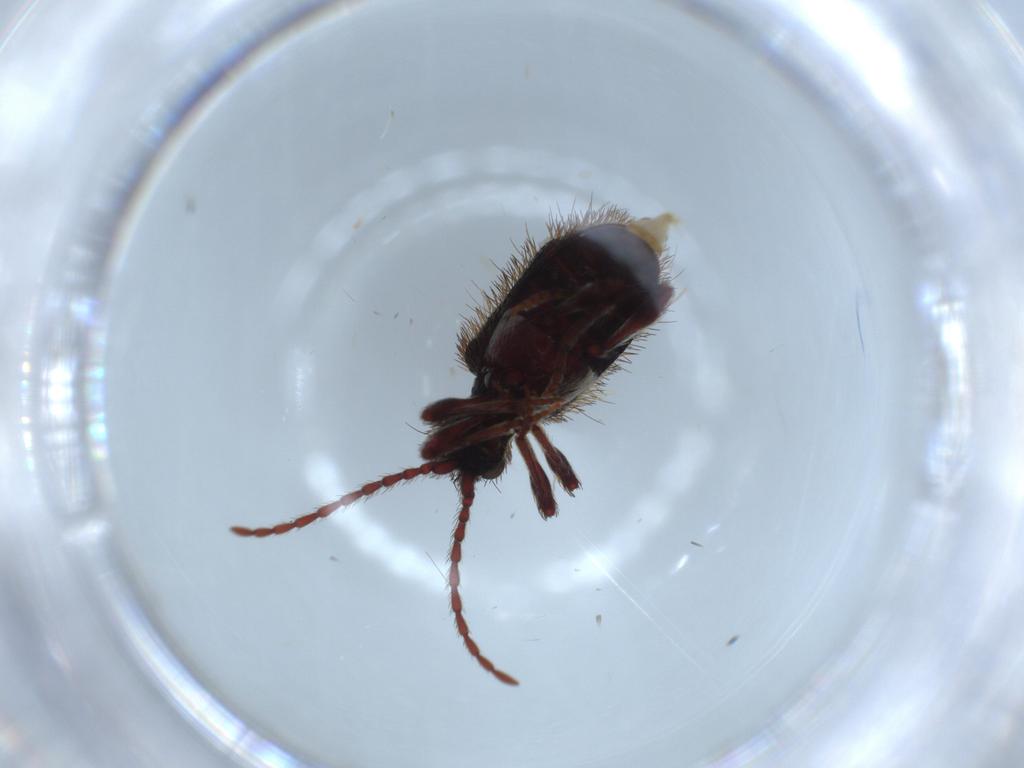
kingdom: Animalia
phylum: Arthropoda
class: Insecta
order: Coleoptera
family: Ptinidae
